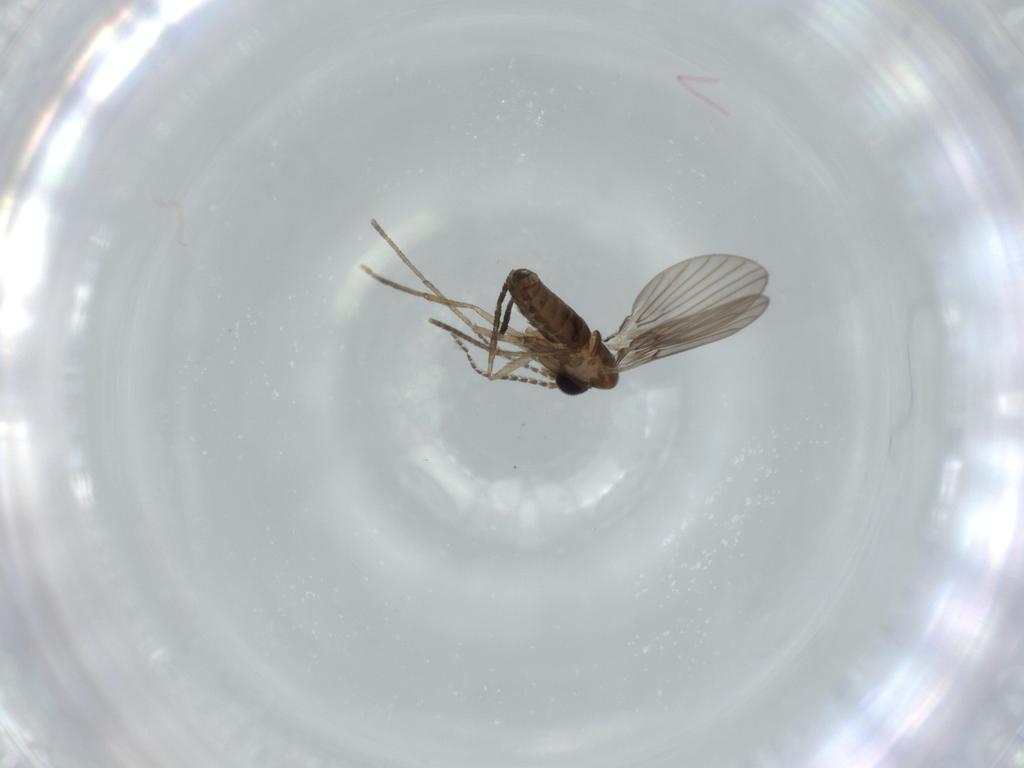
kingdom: Animalia
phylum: Arthropoda
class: Insecta
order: Diptera
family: Psychodidae
